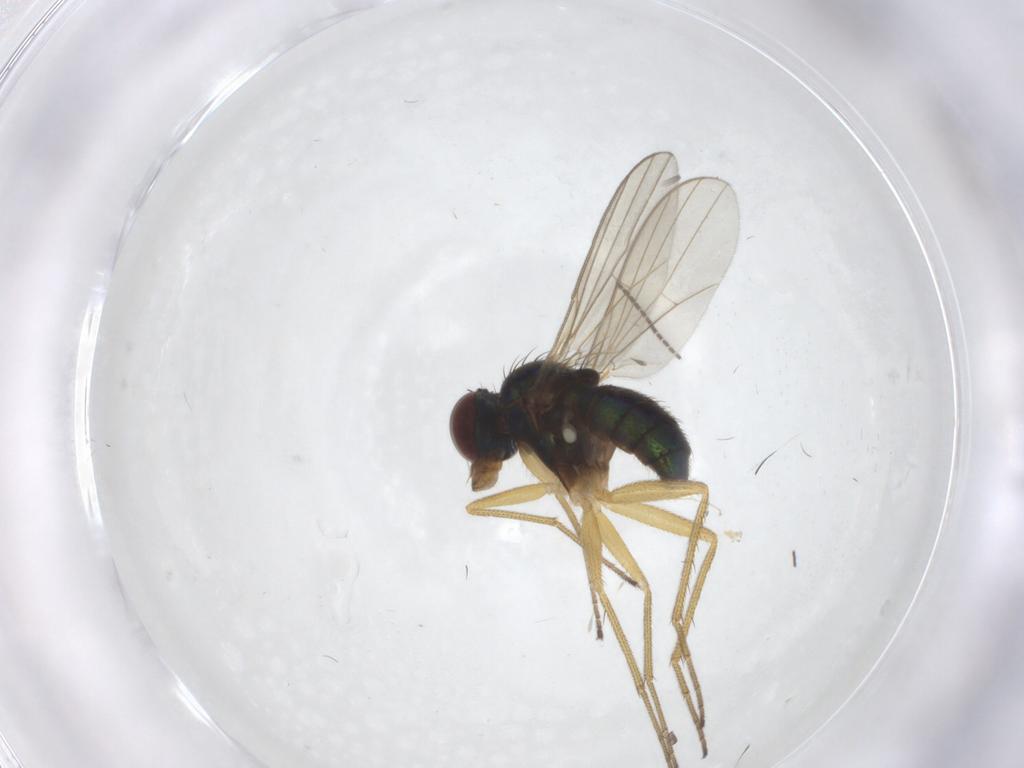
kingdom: Animalia
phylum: Arthropoda
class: Insecta
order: Diptera
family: Dolichopodidae
